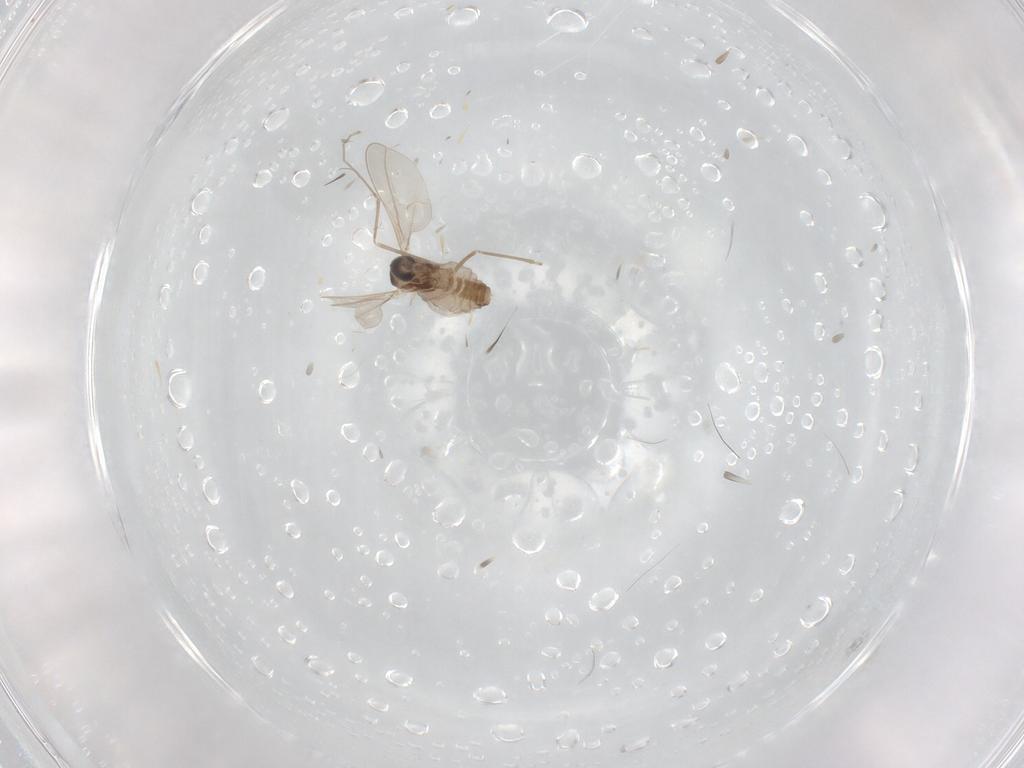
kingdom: Animalia
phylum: Arthropoda
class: Insecta
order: Diptera
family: Cecidomyiidae
